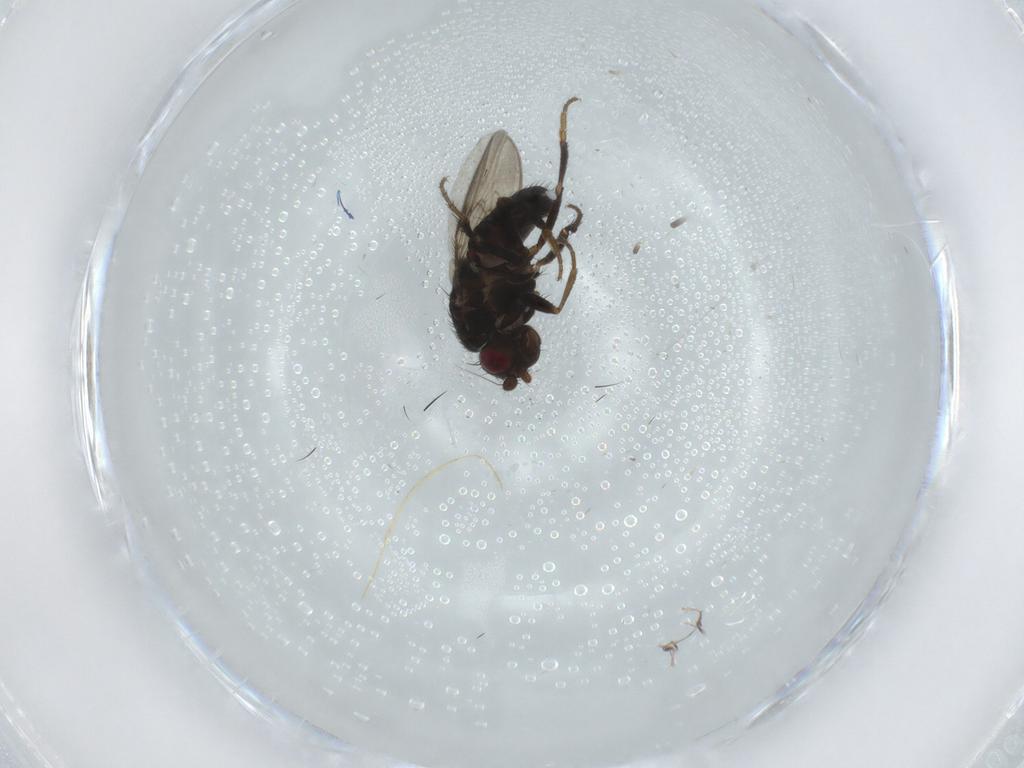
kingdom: Animalia
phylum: Arthropoda
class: Insecta
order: Diptera
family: Sphaeroceridae
